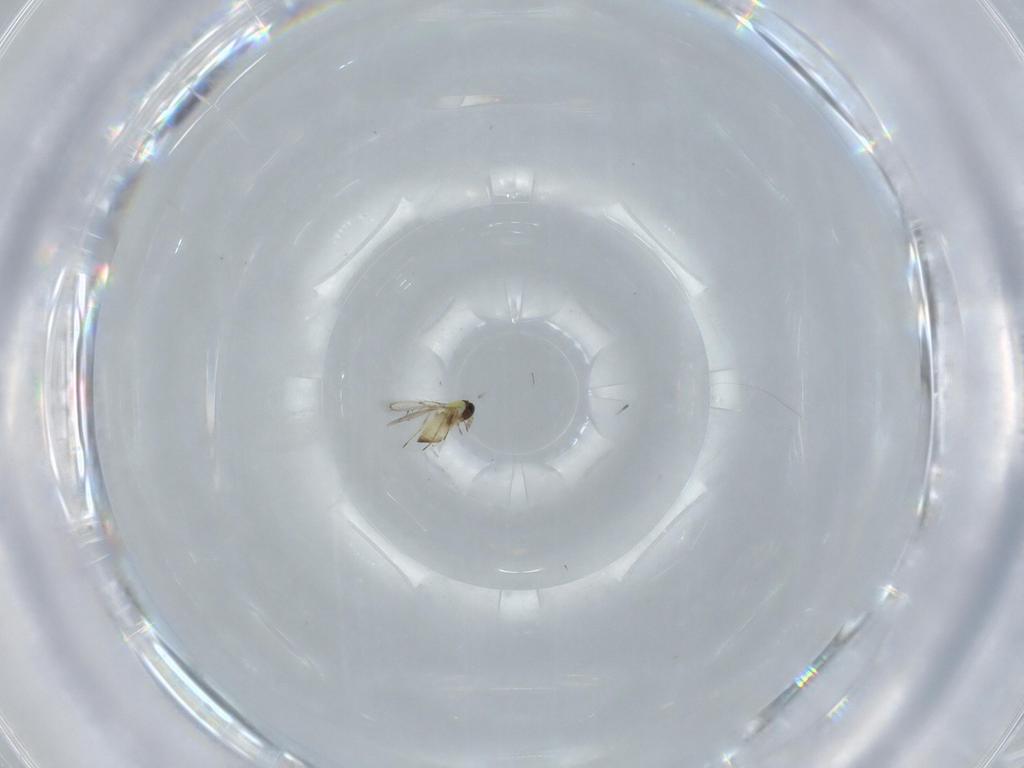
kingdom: Animalia
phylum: Arthropoda
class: Insecta
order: Hymenoptera
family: Trichogrammatidae
